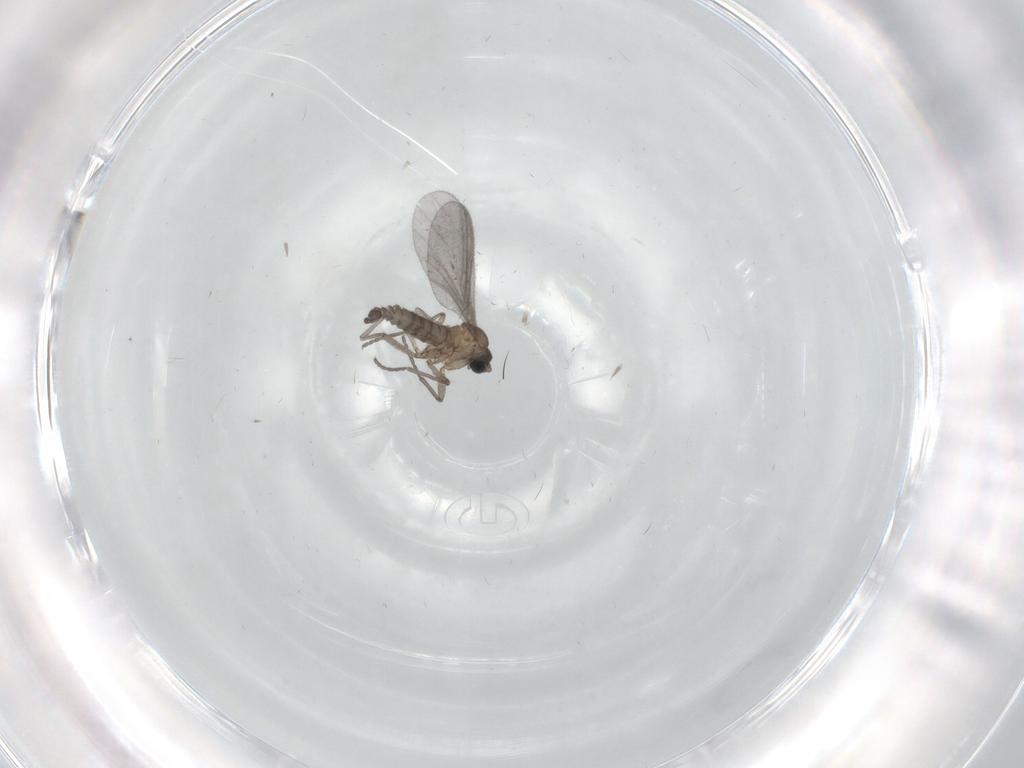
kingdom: Animalia
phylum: Arthropoda
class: Insecta
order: Diptera
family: Sciaridae
